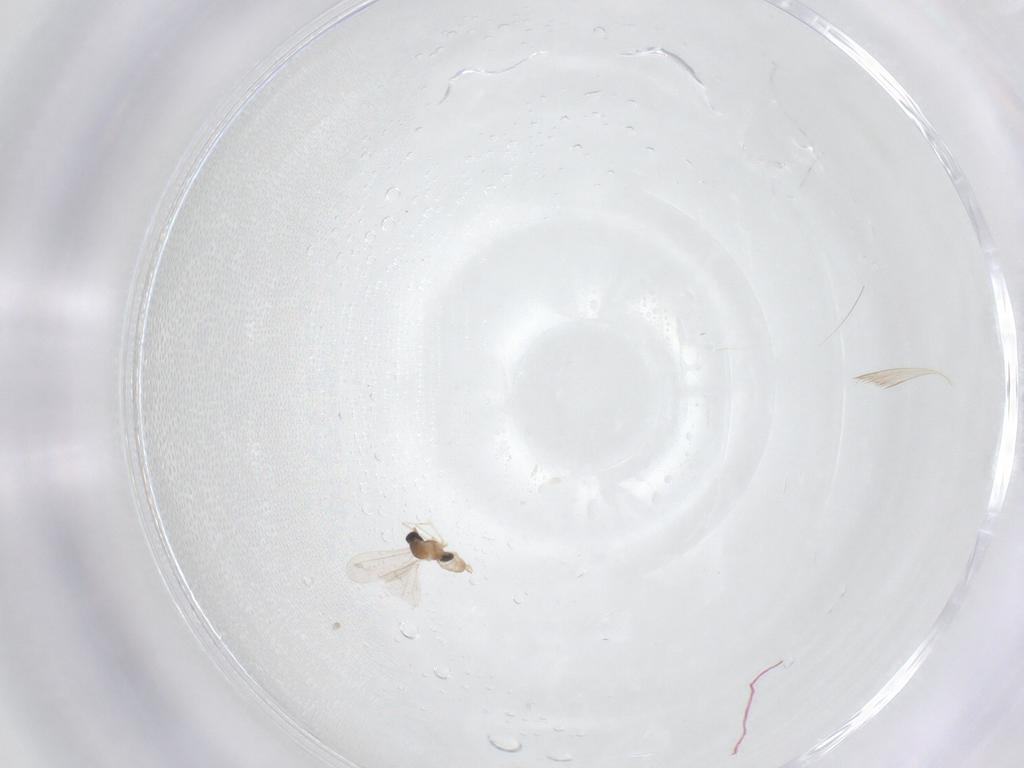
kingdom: Animalia
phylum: Arthropoda
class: Insecta
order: Diptera
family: Cecidomyiidae
